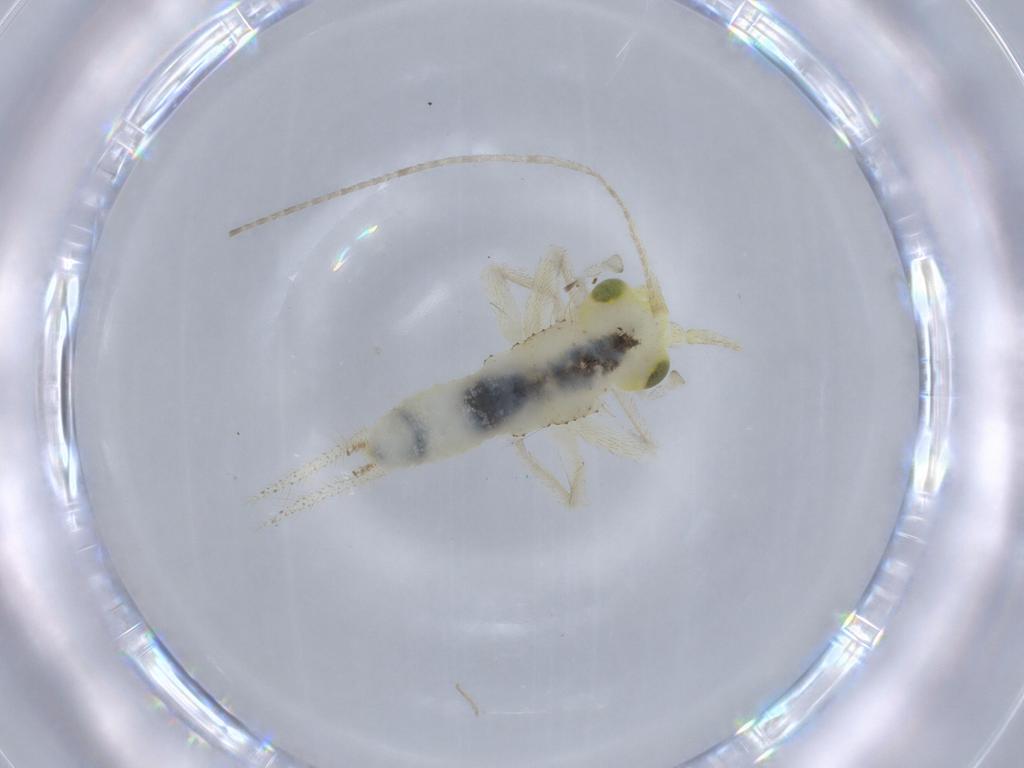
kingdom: Animalia
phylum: Arthropoda
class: Insecta
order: Orthoptera
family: Trigonidiidae
